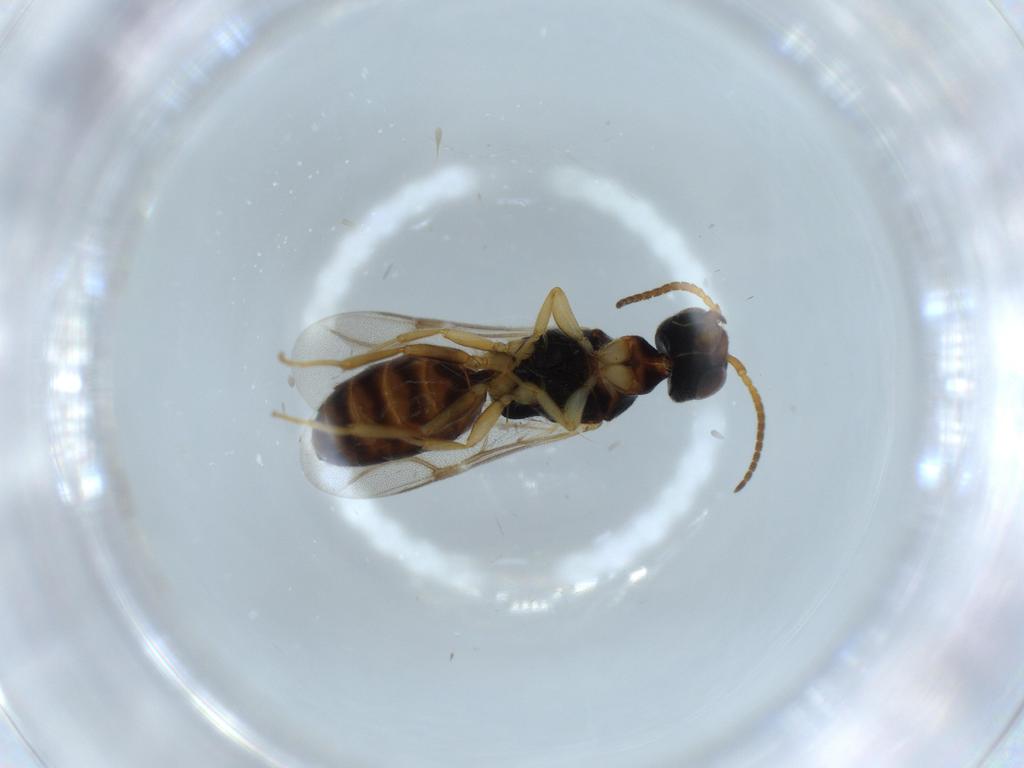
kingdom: Animalia
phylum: Arthropoda
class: Insecta
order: Hymenoptera
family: Bethylidae
